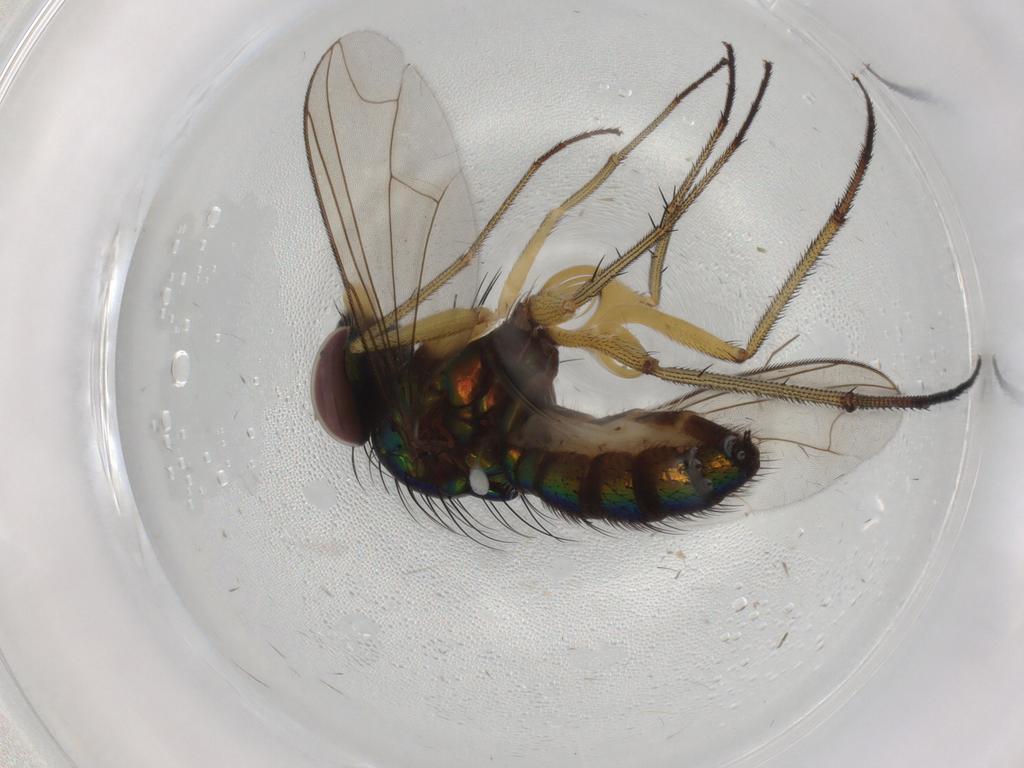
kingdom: Animalia
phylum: Arthropoda
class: Insecta
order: Diptera
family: Dolichopodidae
